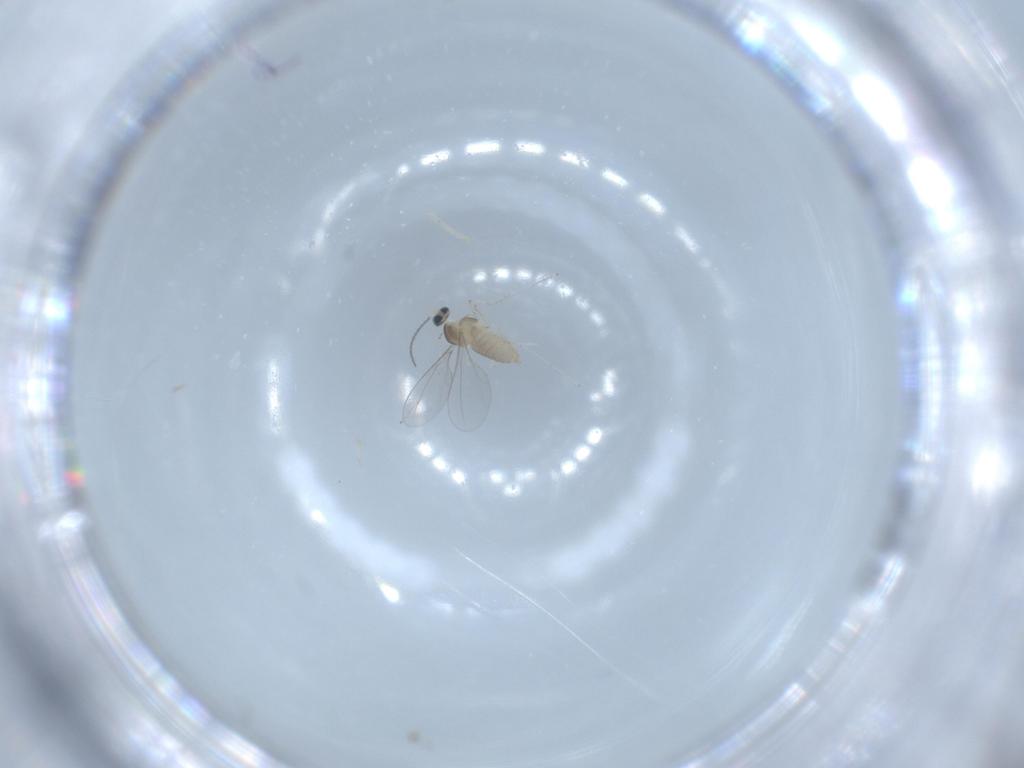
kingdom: Animalia
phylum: Arthropoda
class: Insecta
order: Diptera
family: Cecidomyiidae
